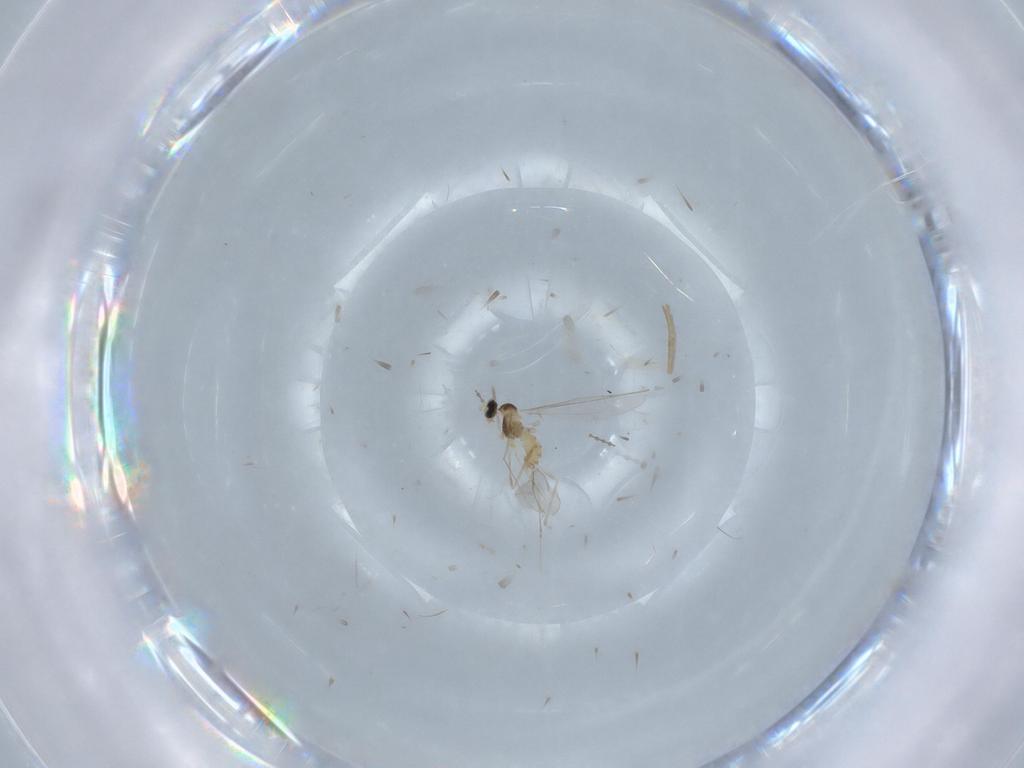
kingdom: Animalia
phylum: Arthropoda
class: Insecta
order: Diptera
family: Cecidomyiidae
